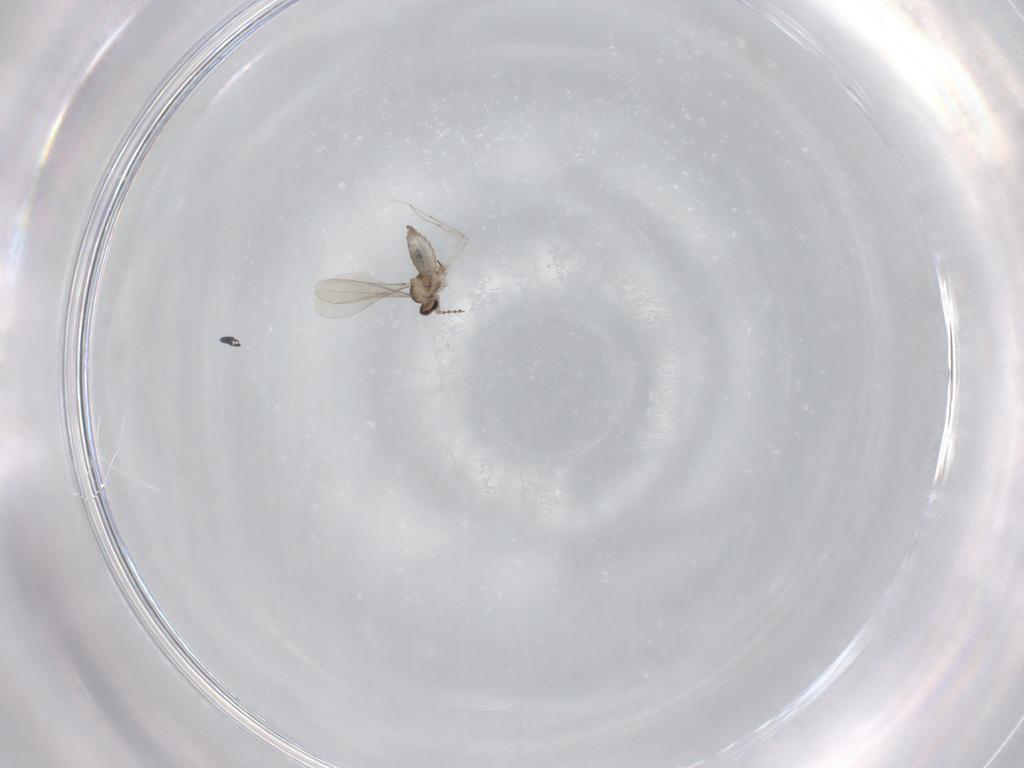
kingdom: Animalia
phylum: Arthropoda
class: Insecta
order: Diptera
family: Cecidomyiidae
